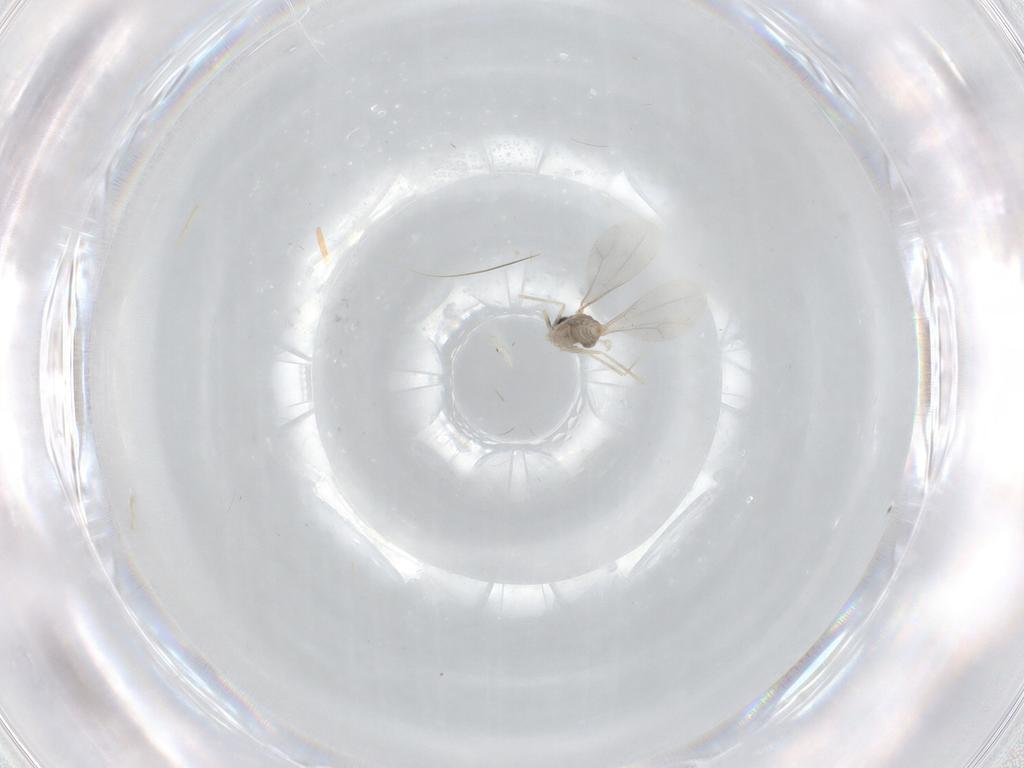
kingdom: Animalia
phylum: Arthropoda
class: Insecta
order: Diptera
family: Cecidomyiidae
